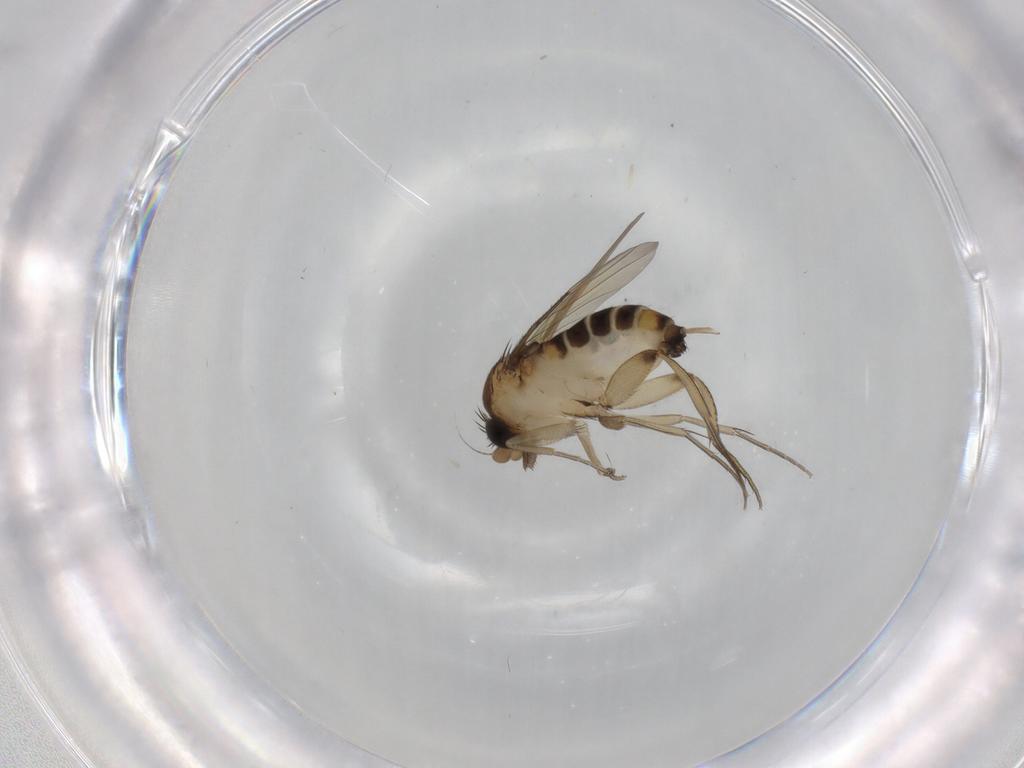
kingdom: Animalia
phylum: Arthropoda
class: Insecta
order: Diptera
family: Phoridae
